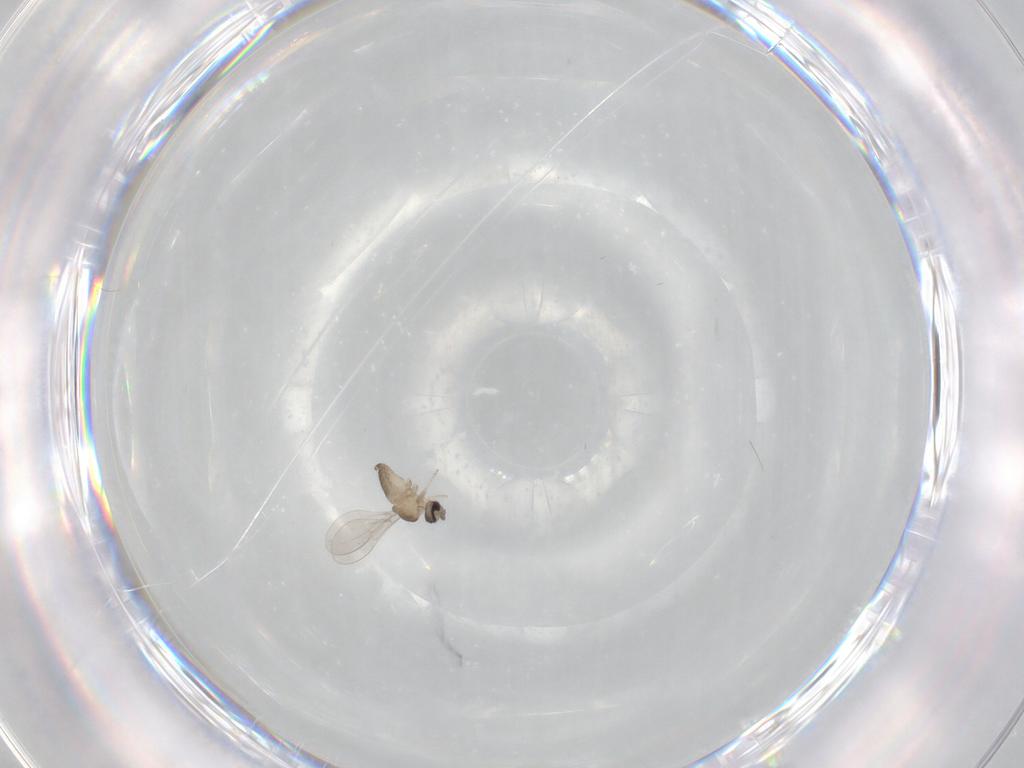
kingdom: Animalia
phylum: Arthropoda
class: Insecta
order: Diptera
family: Cecidomyiidae
